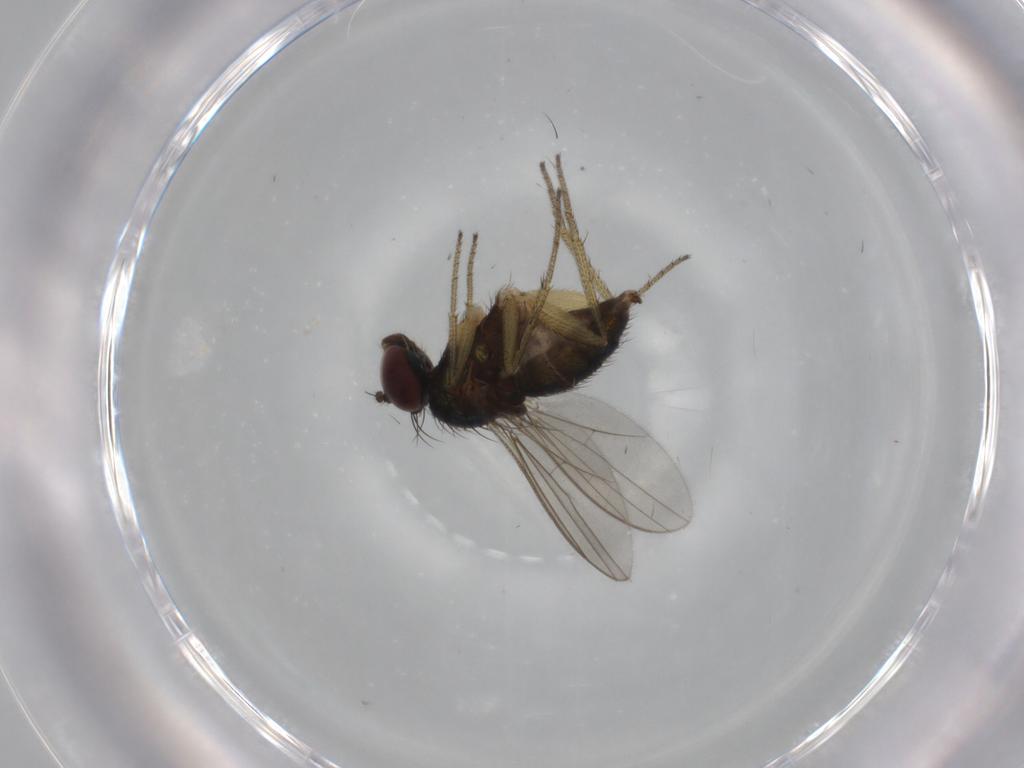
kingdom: Animalia
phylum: Arthropoda
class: Insecta
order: Diptera
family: Dolichopodidae
